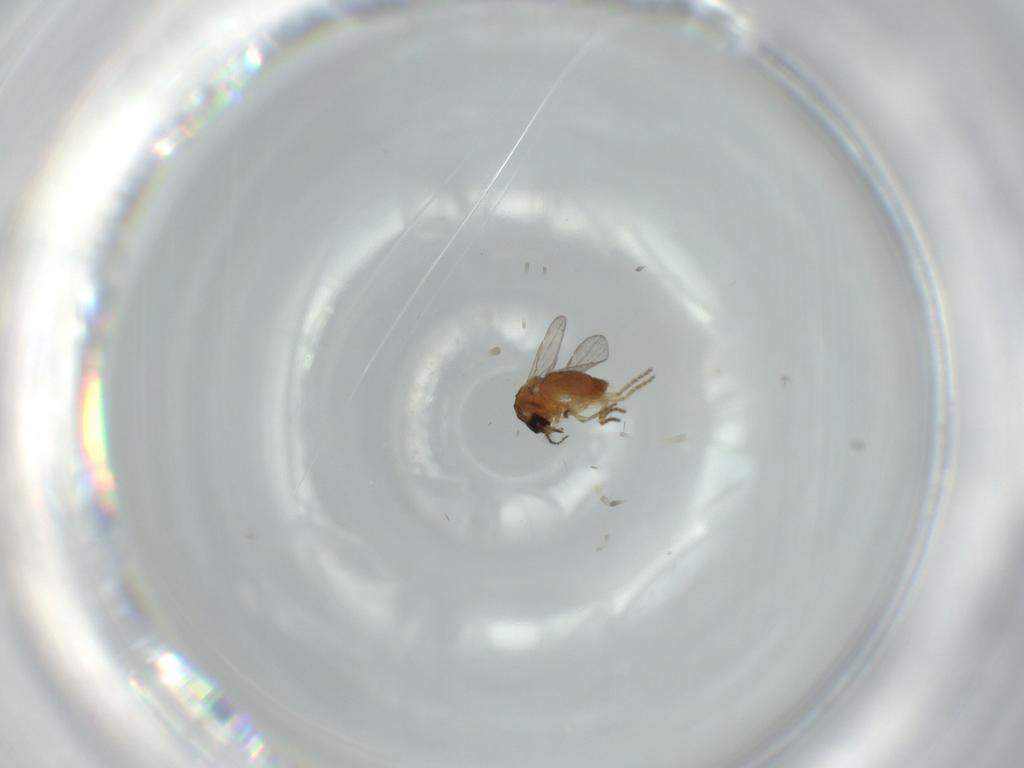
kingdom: Animalia
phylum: Arthropoda
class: Insecta
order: Diptera
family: Ceratopogonidae
